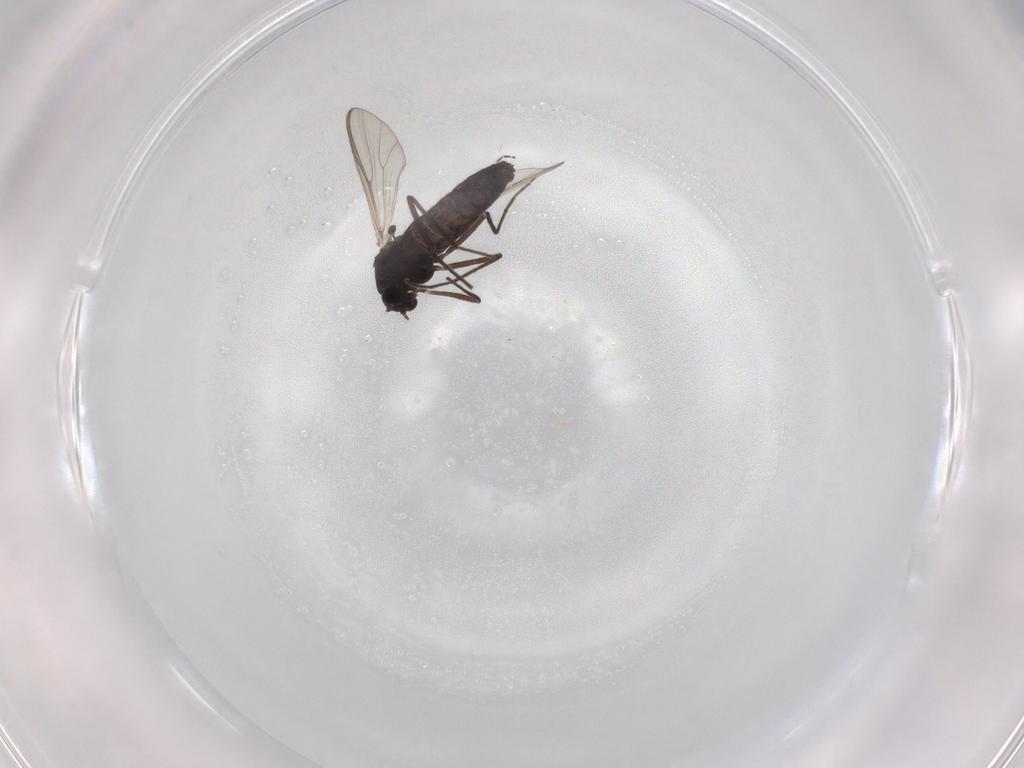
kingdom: Animalia
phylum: Arthropoda
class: Insecta
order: Diptera
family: Chironomidae
